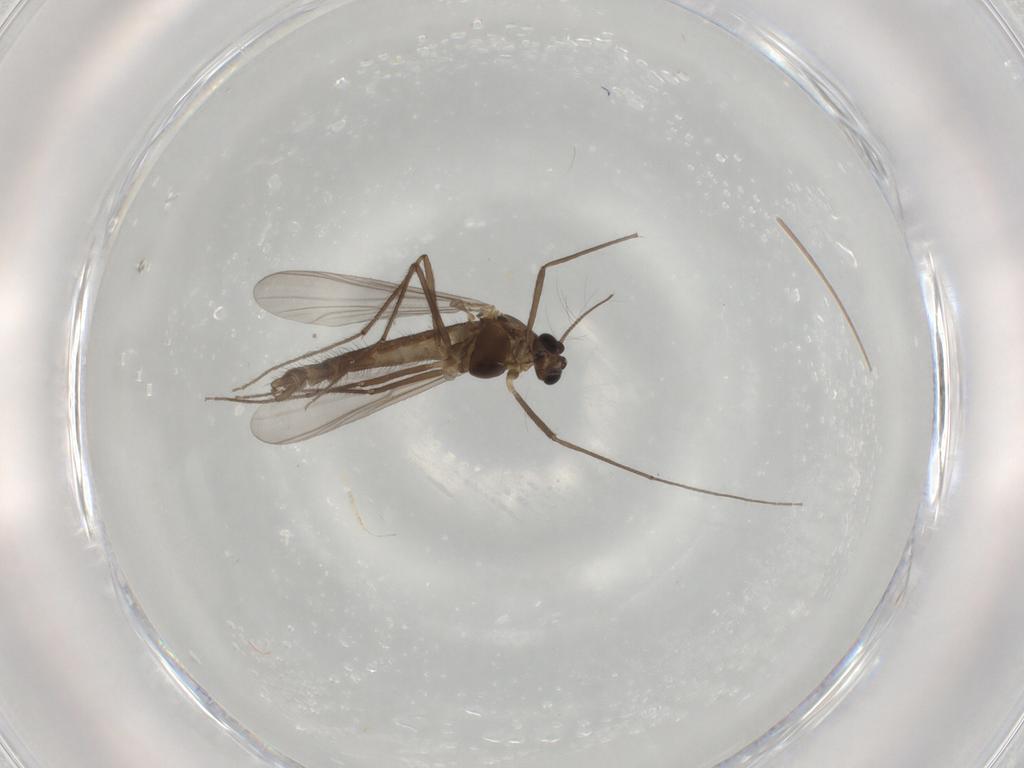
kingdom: Animalia
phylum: Arthropoda
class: Insecta
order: Diptera
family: Chironomidae
